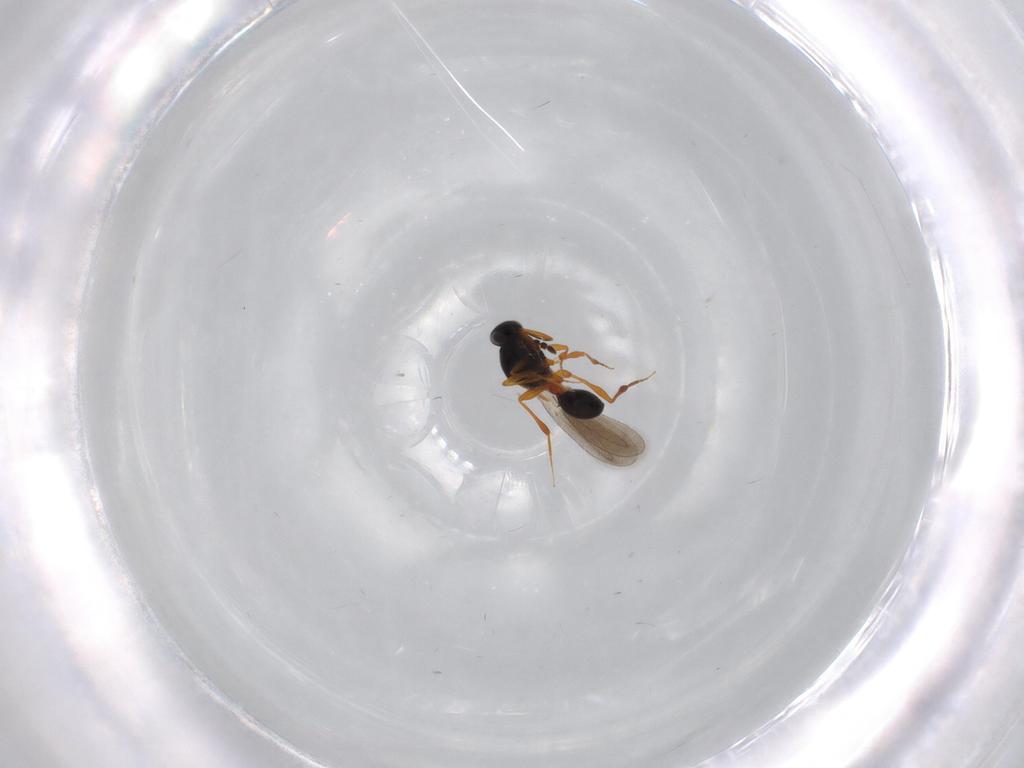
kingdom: Animalia
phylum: Arthropoda
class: Insecta
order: Hymenoptera
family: Platygastridae
